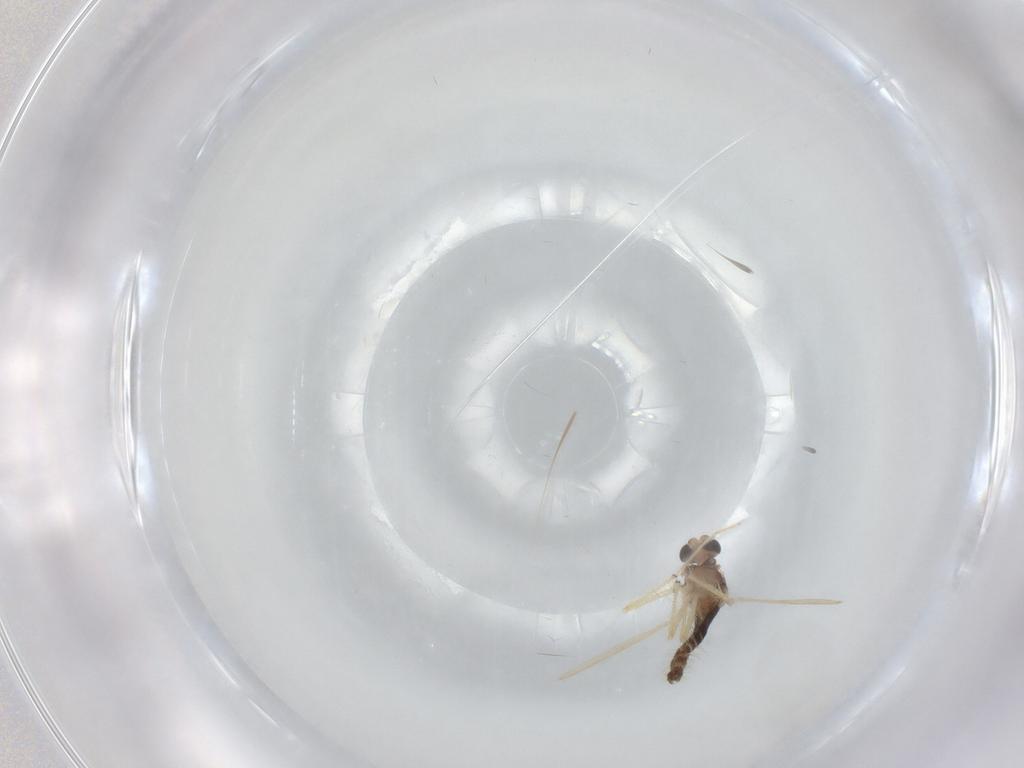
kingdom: Animalia
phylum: Arthropoda
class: Insecta
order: Diptera
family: Chironomidae
